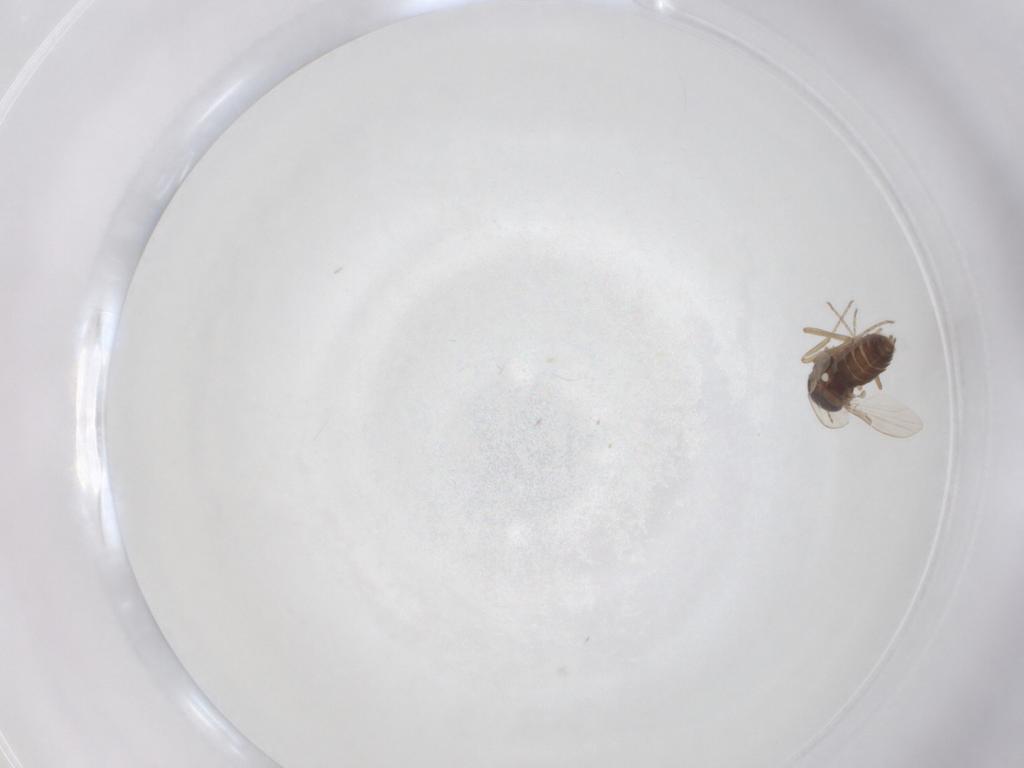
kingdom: Animalia
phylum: Arthropoda
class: Insecta
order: Diptera
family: Ceratopogonidae
